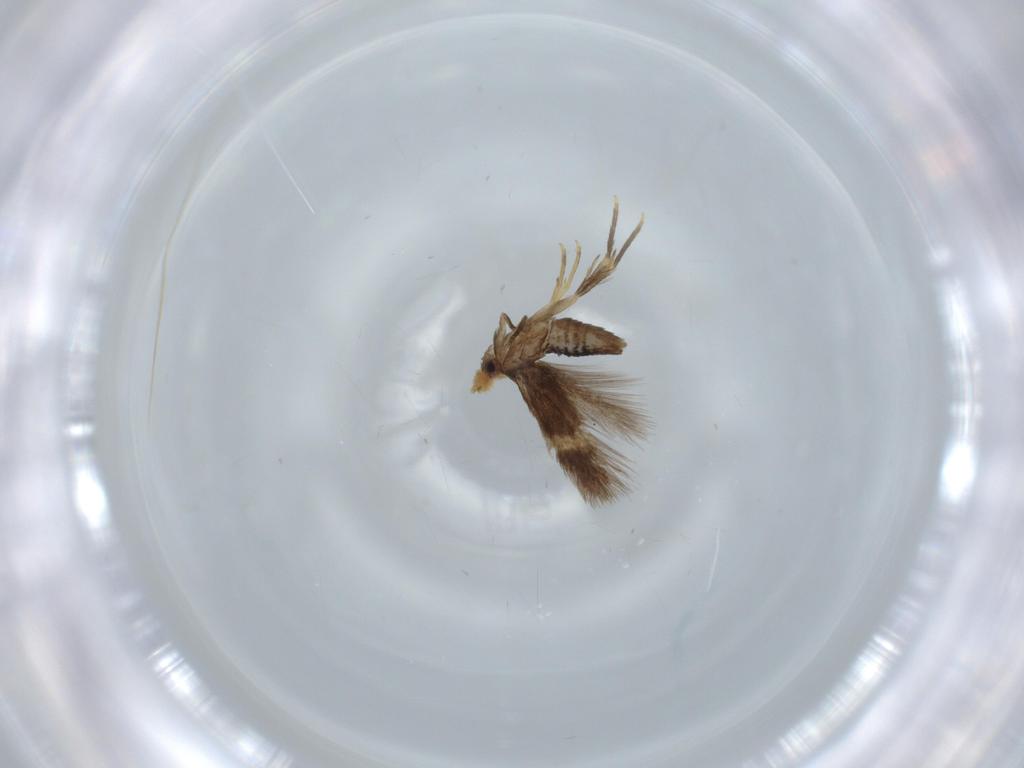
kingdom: Animalia
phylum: Arthropoda
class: Insecta
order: Lepidoptera
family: Gracillariidae
